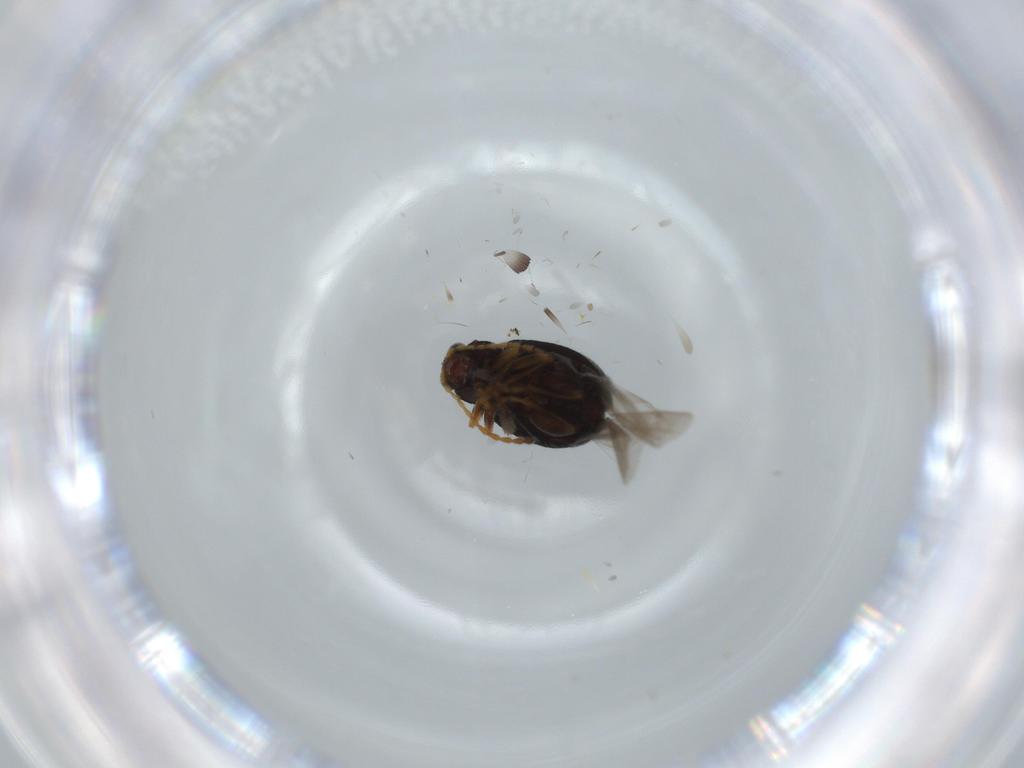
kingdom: Animalia
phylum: Arthropoda
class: Insecta
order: Coleoptera
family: Chrysomelidae
